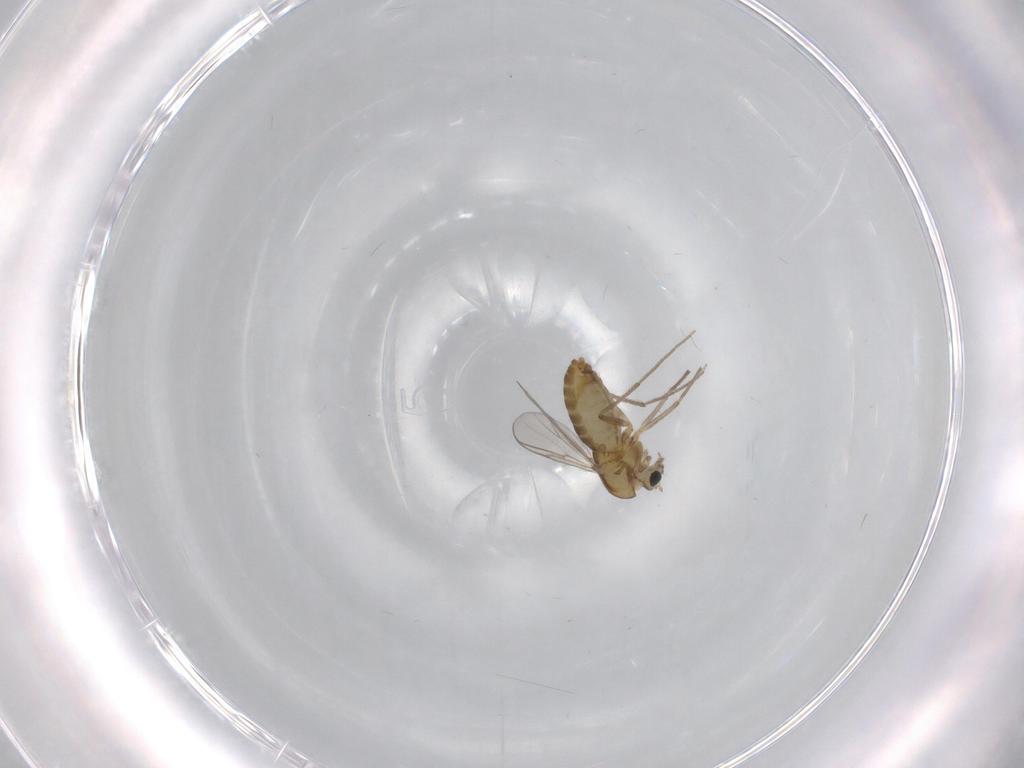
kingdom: Animalia
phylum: Arthropoda
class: Insecta
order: Diptera
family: Chironomidae
